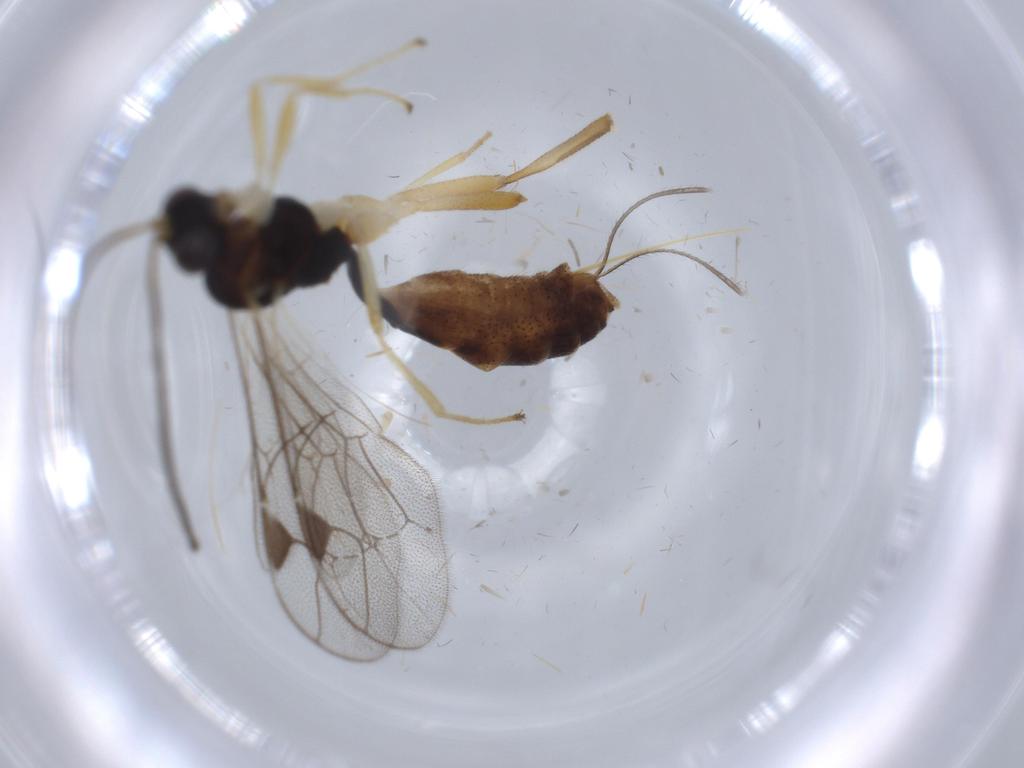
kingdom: Animalia
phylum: Arthropoda
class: Insecta
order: Hymenoptera
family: Ichneumonidae
